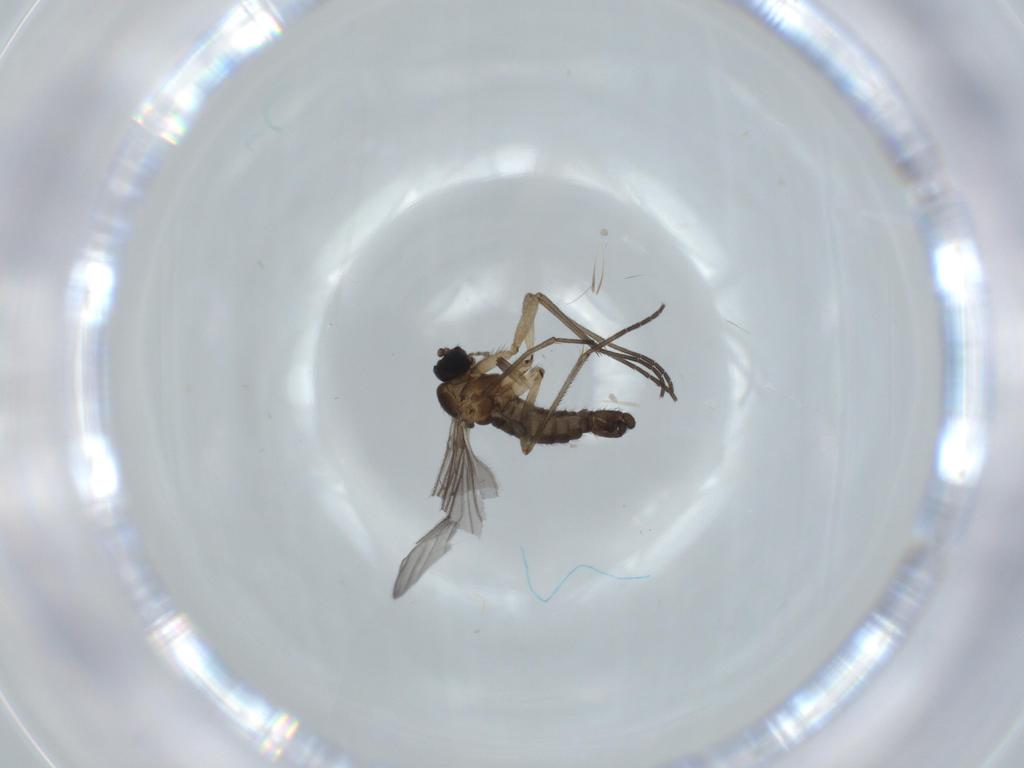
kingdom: Animalia
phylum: Arthropoda
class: Insecta
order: Diptera
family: Sciaridae
